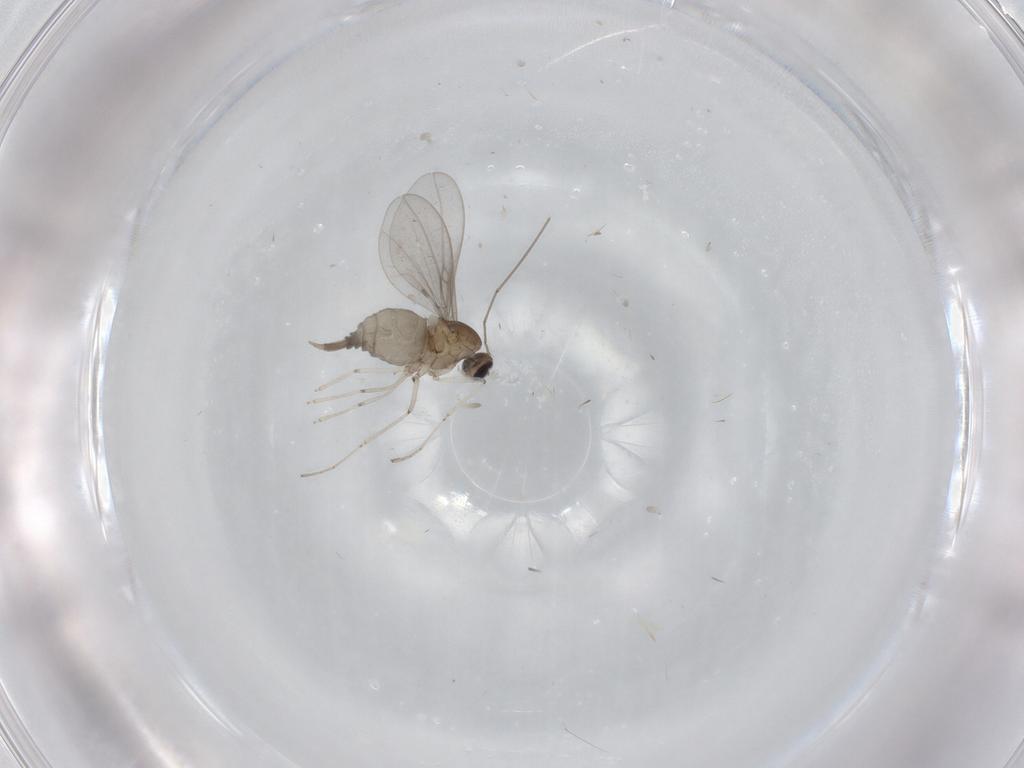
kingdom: Animalia
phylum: Arthropoda
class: Insecta
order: Diptera
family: Cecidomyiidae
